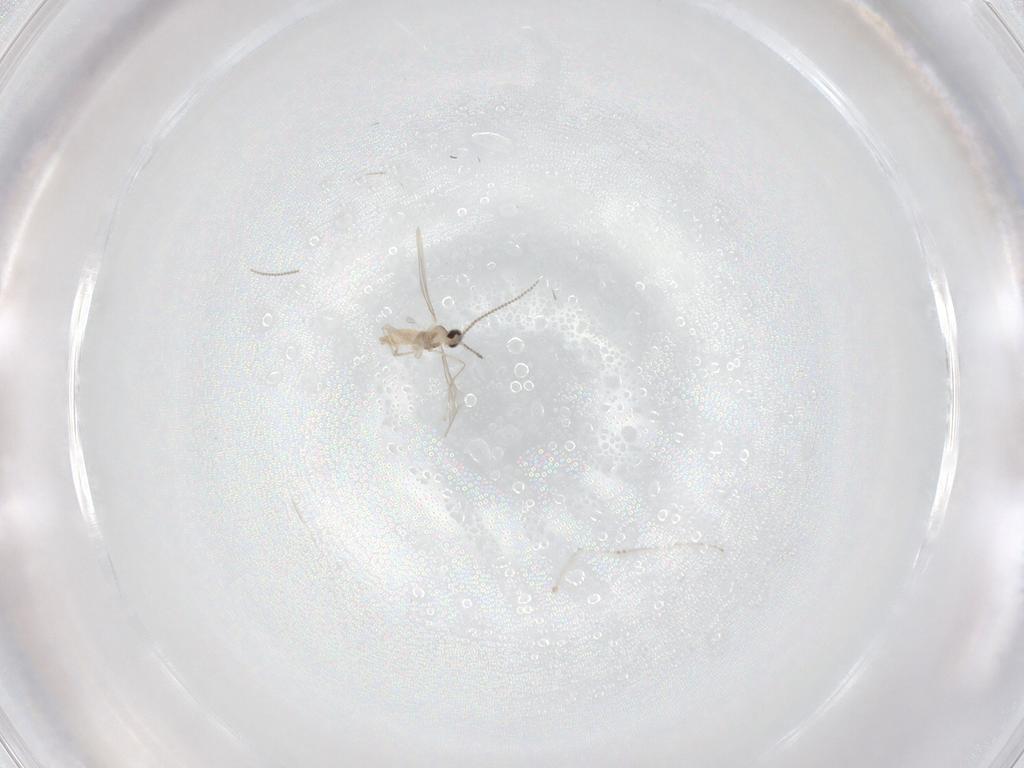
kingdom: Animalia
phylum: Arthropoda
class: Insecta
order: Diptera
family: Cecidomyiidae
